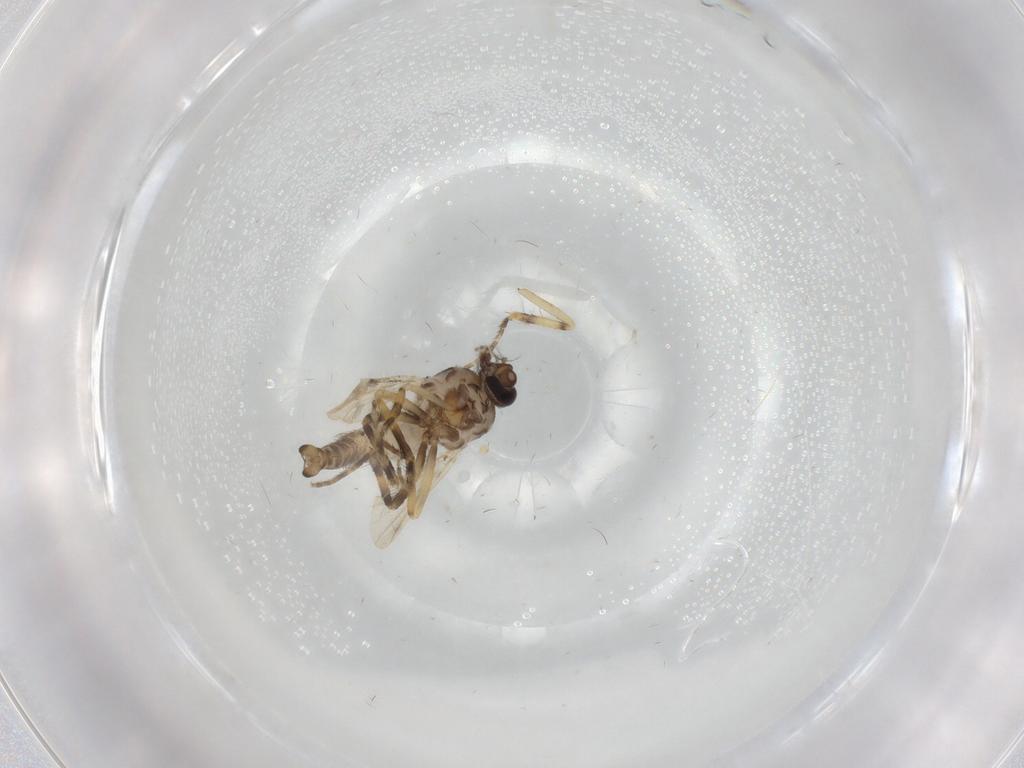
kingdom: Animalia
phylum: Arthropoda
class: Insecta
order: Diptera
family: Ceratopogonidae
